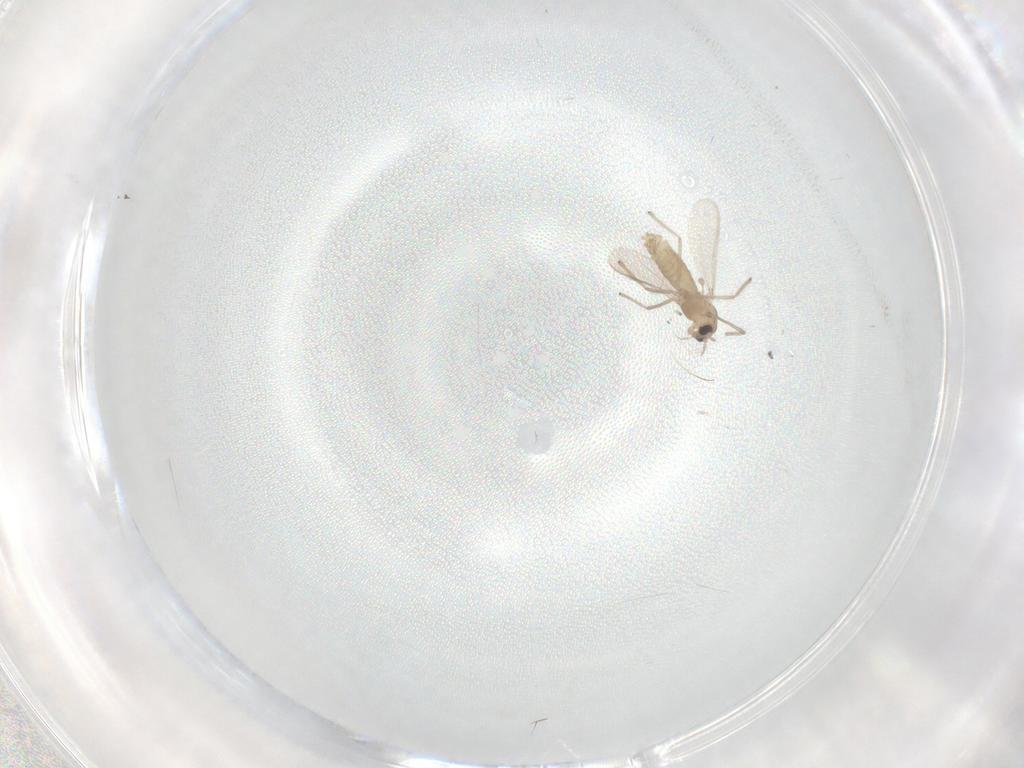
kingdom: Animalia
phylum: Arthropoda
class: Insecta
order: Diptera
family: Chironomidae
